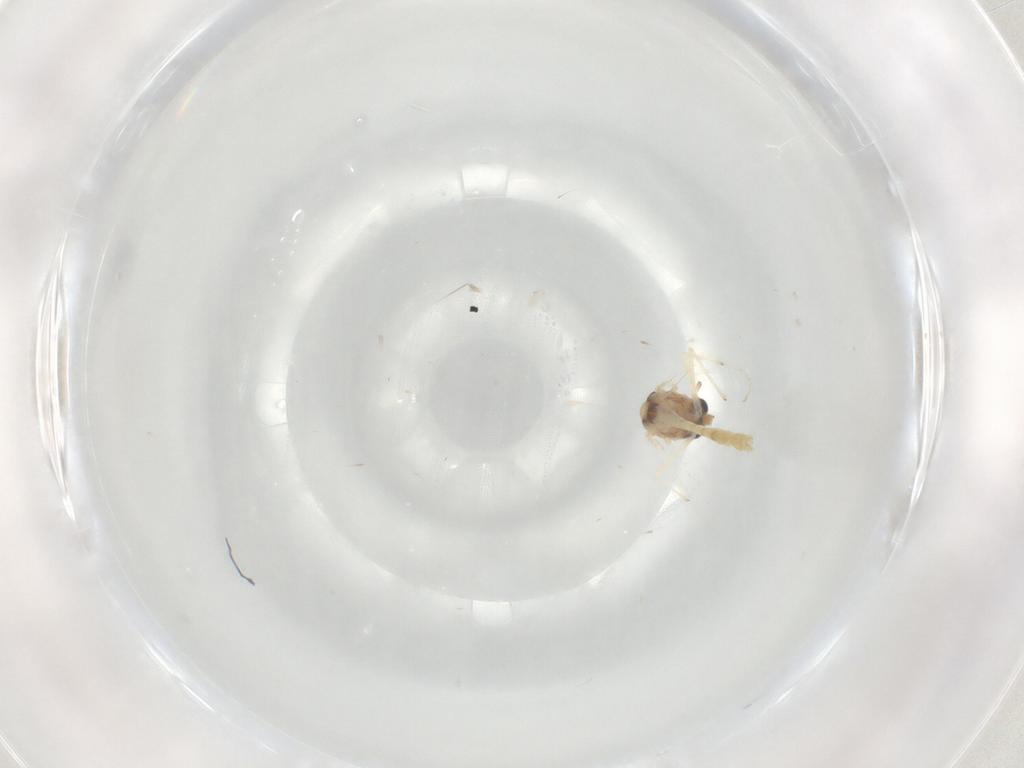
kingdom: Animalia
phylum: Arthropoda
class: Insecta
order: Diptera
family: Chironomidae
